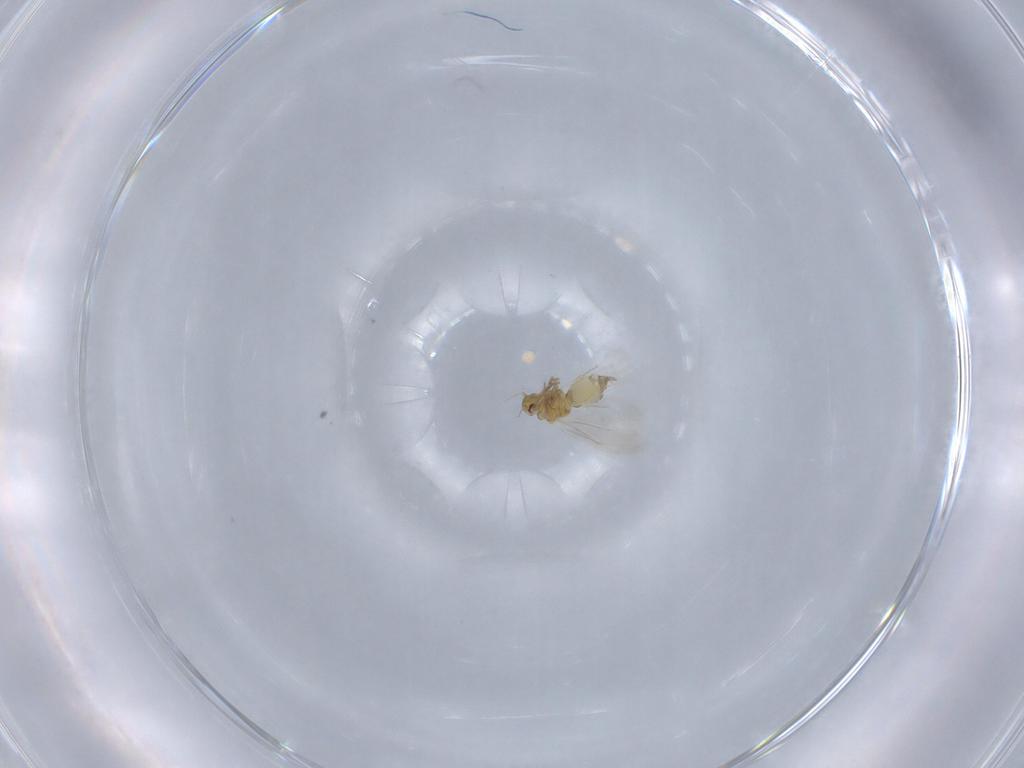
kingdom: Animalia
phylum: Arthropoda
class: Insecta
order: Hemiptera
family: Aleyrodidae
